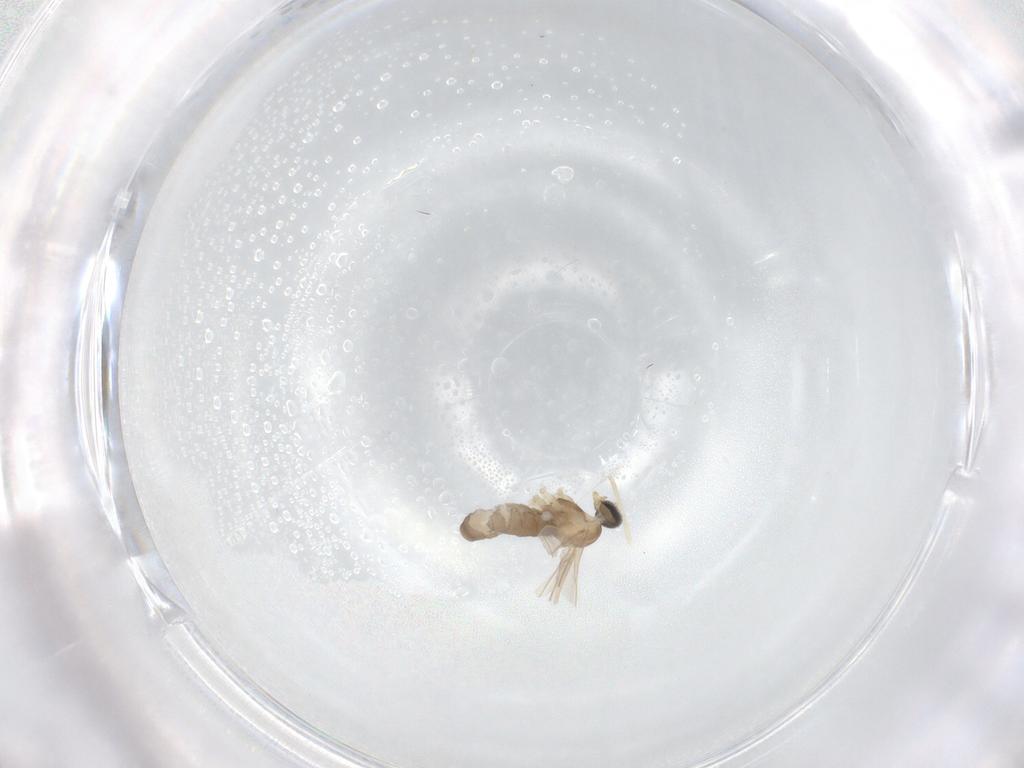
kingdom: Animalia
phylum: Arthropoda
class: Insecta
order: Diptera
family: Cecidomyiidae
